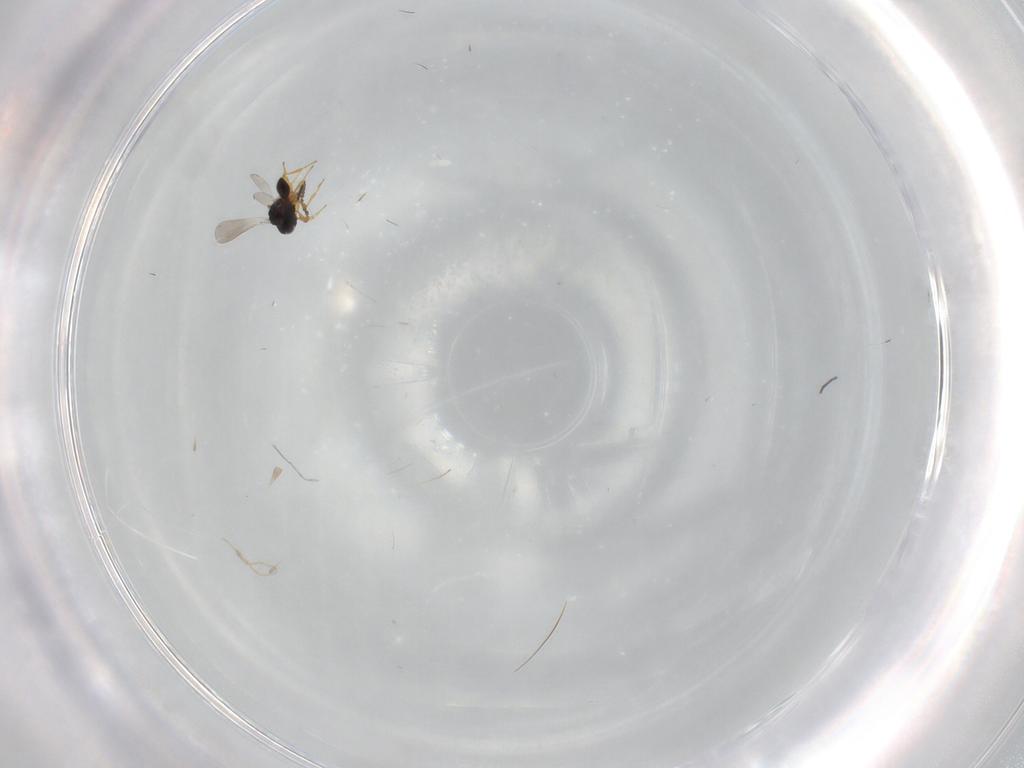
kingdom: Animalia
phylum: Arthropoda
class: Insecta
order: Hymenoptera
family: Formicidae
